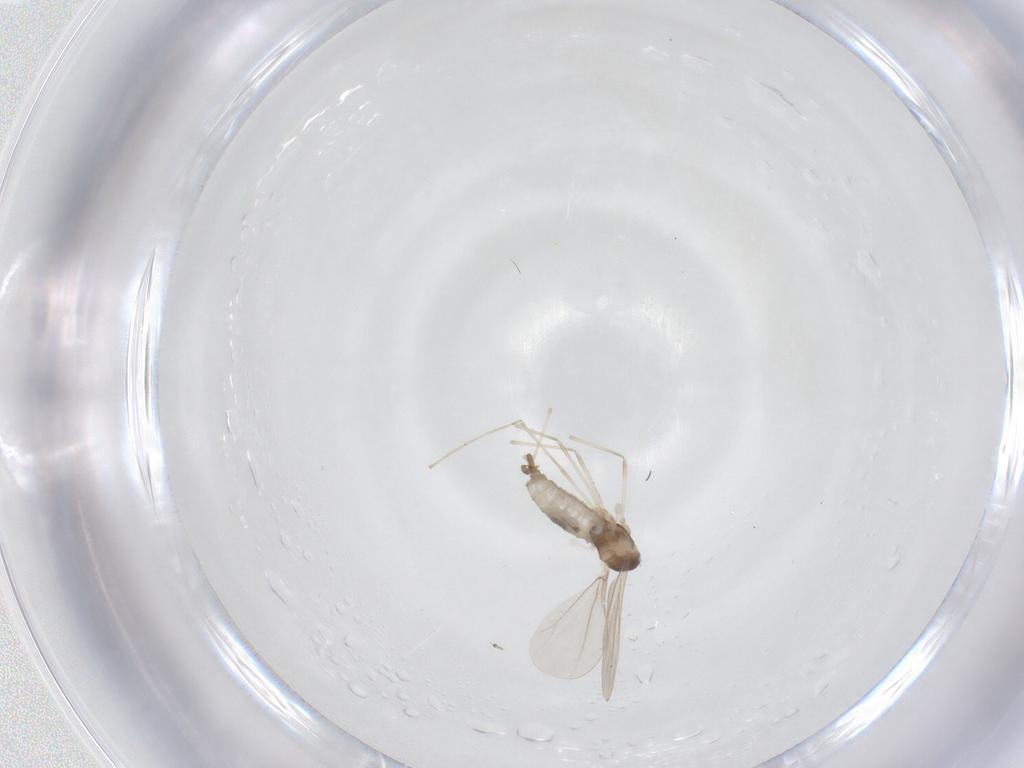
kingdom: Animalia
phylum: Arthropoda
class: Insecta
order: Diptera
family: Cecidomyiidae
